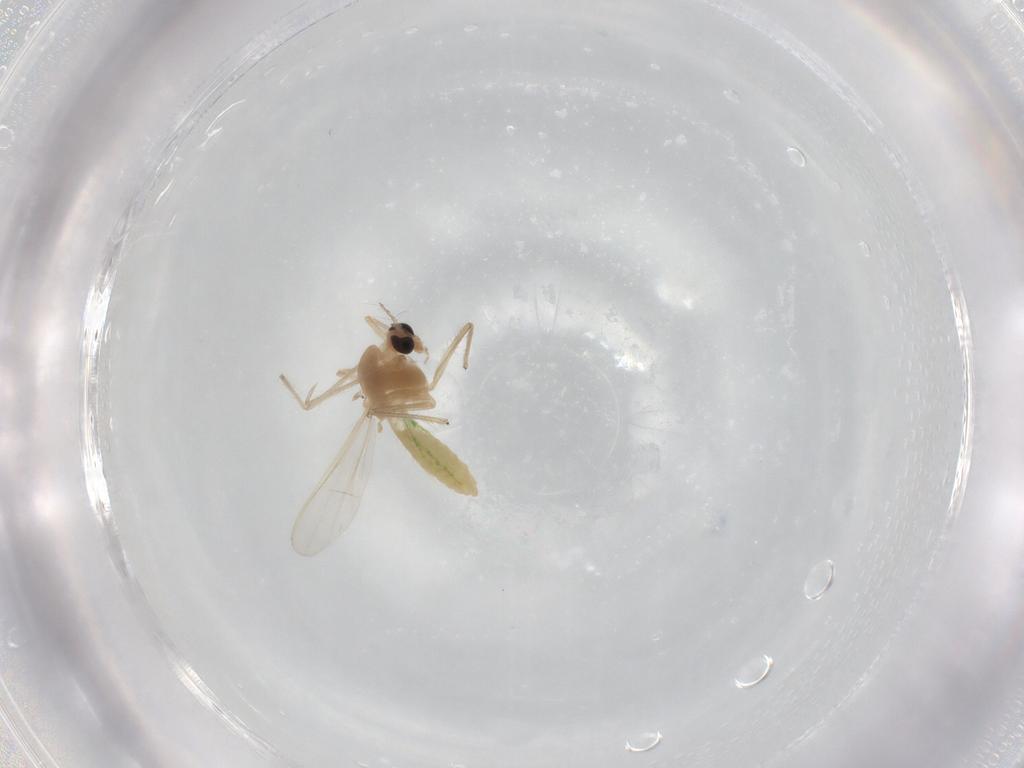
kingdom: Animalia
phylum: Arthropoda
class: Insecta
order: Diptera
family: Chironomidae
